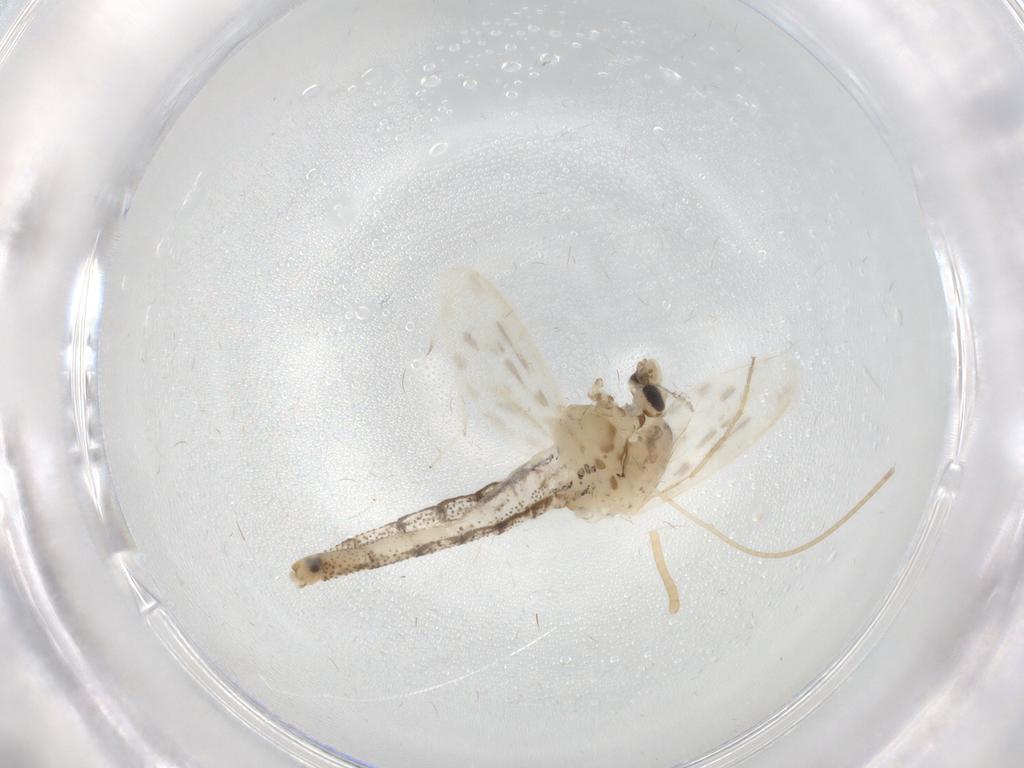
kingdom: Animalia
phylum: Arthropoda
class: Insecta
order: Diptera
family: Chaoboridae
